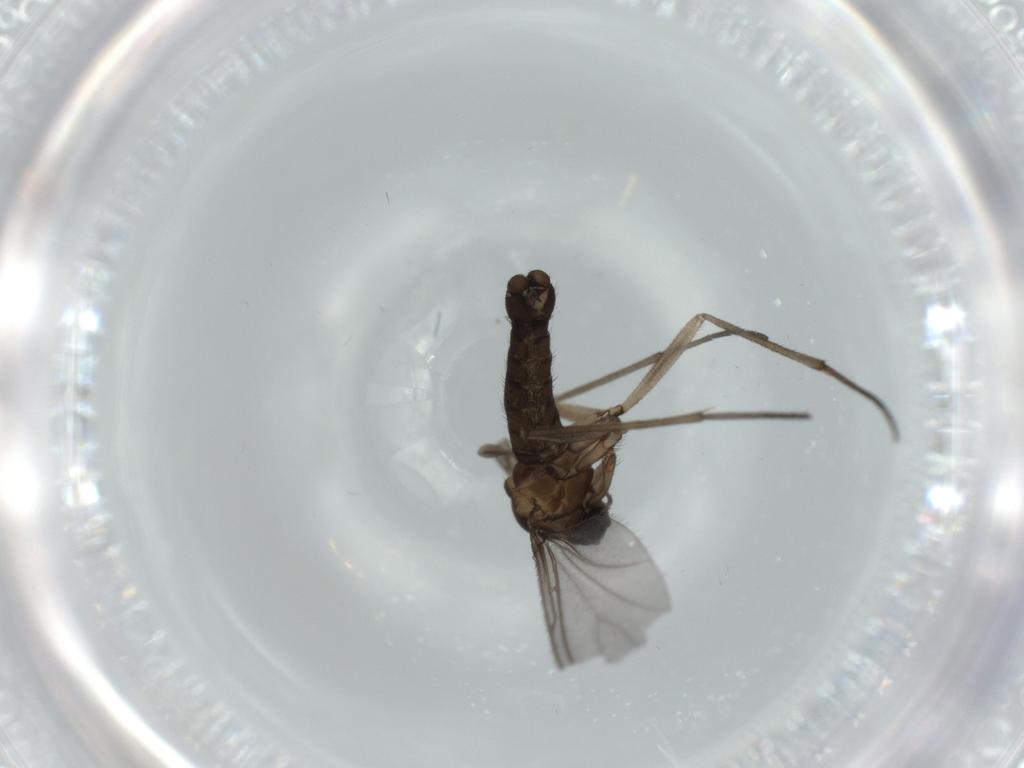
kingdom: Animalia
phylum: Arthropoda
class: Insecta
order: Diptera
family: Sciaridae
